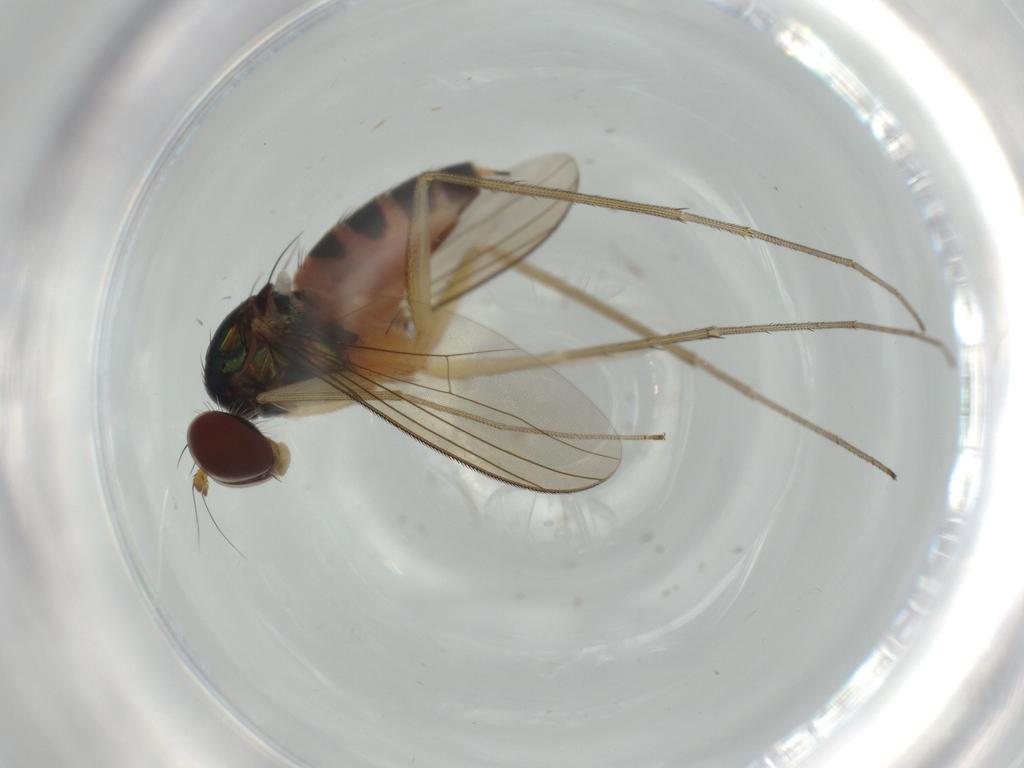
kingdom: Animalia
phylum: Arthropoda
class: Insecta
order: Diptera
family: Dolichopodidae
